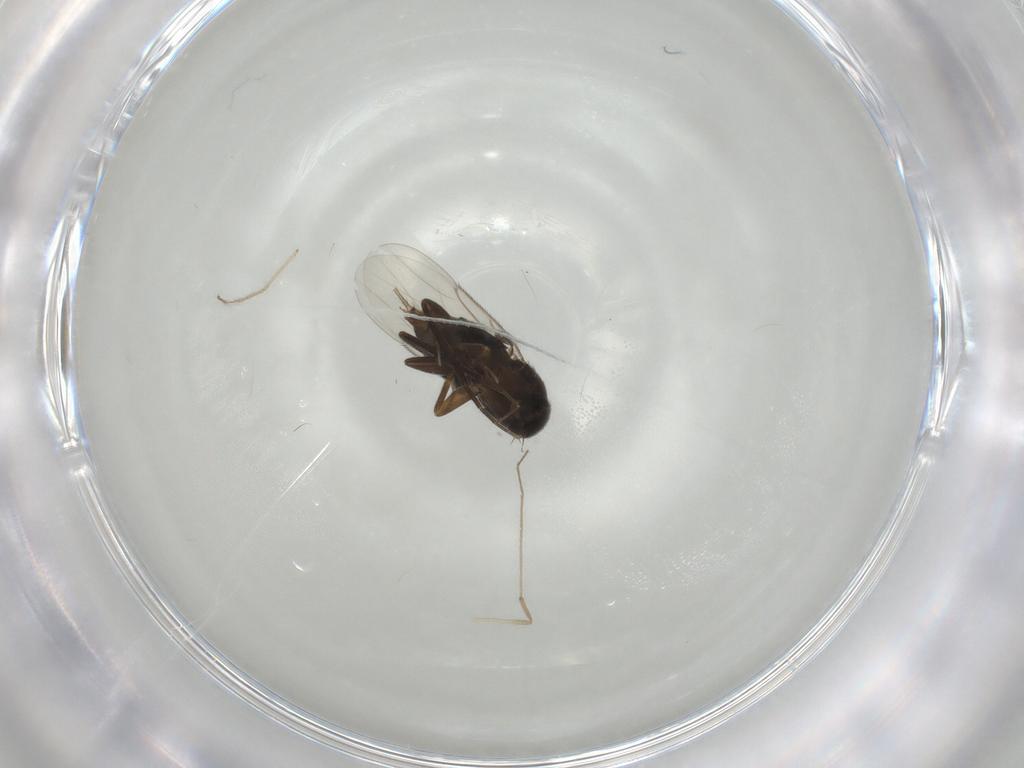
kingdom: Animalia
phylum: Arthropoda
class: Insecta
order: Diptera
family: Phoridae
